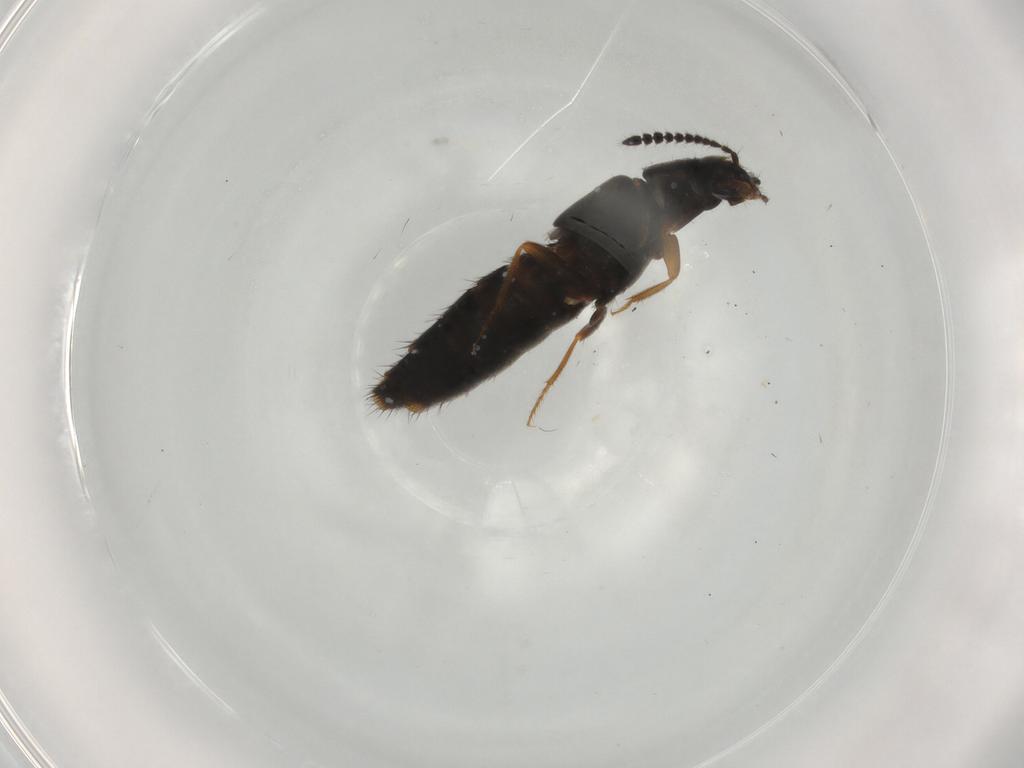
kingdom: Animalia
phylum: Arthropoda
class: Insecta
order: Coleoptera
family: Staphylinidae
